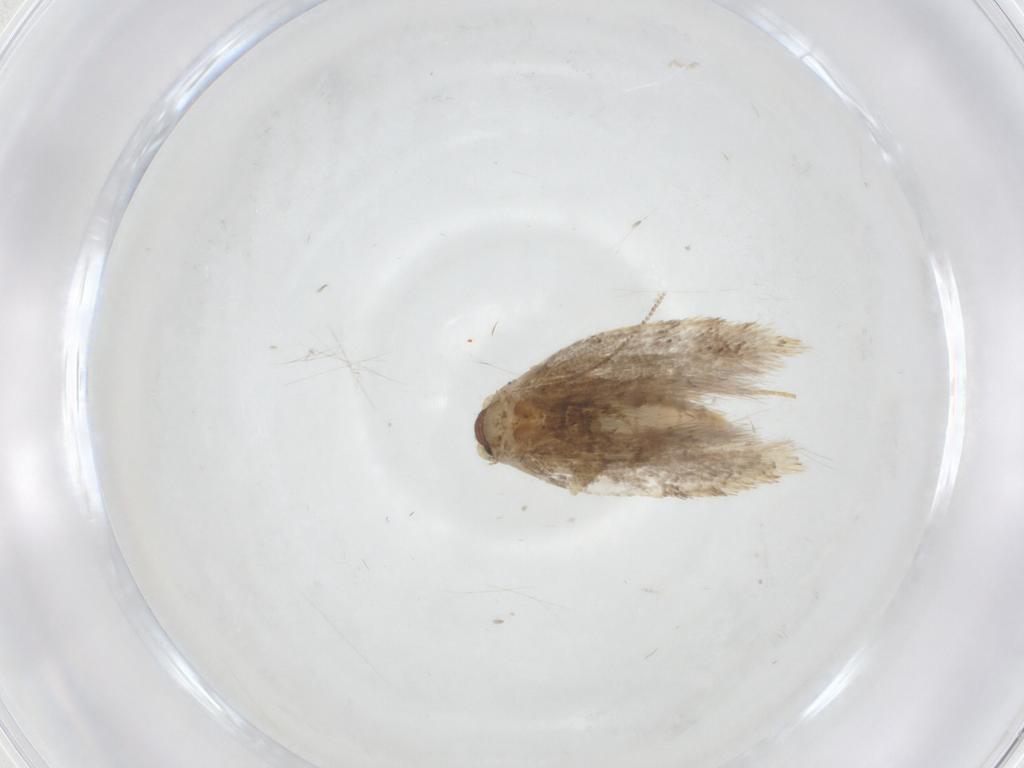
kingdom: Animalia
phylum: Arthropoda
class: Insecta
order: Lepidoptera
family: Tineidae
